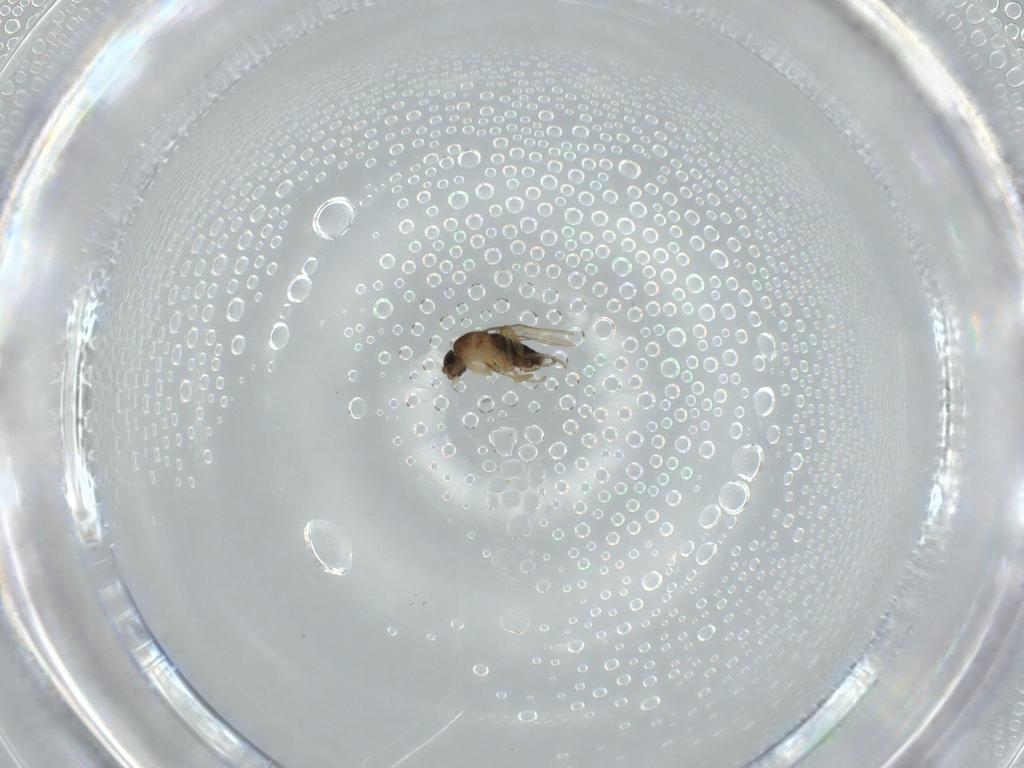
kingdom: Animalia
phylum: Arthropoda
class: Insecta
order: Diptera
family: Phoridae
